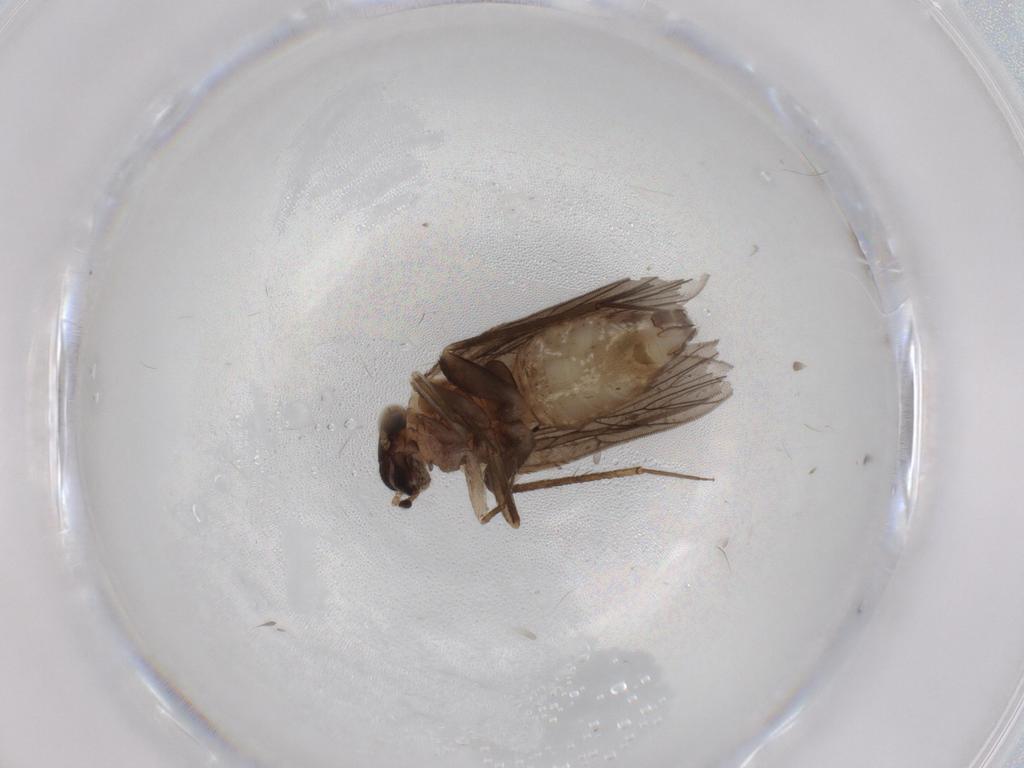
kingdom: Animalia
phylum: Arthropoda
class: Insecta
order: Psocodea
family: Lepidopsocidae
